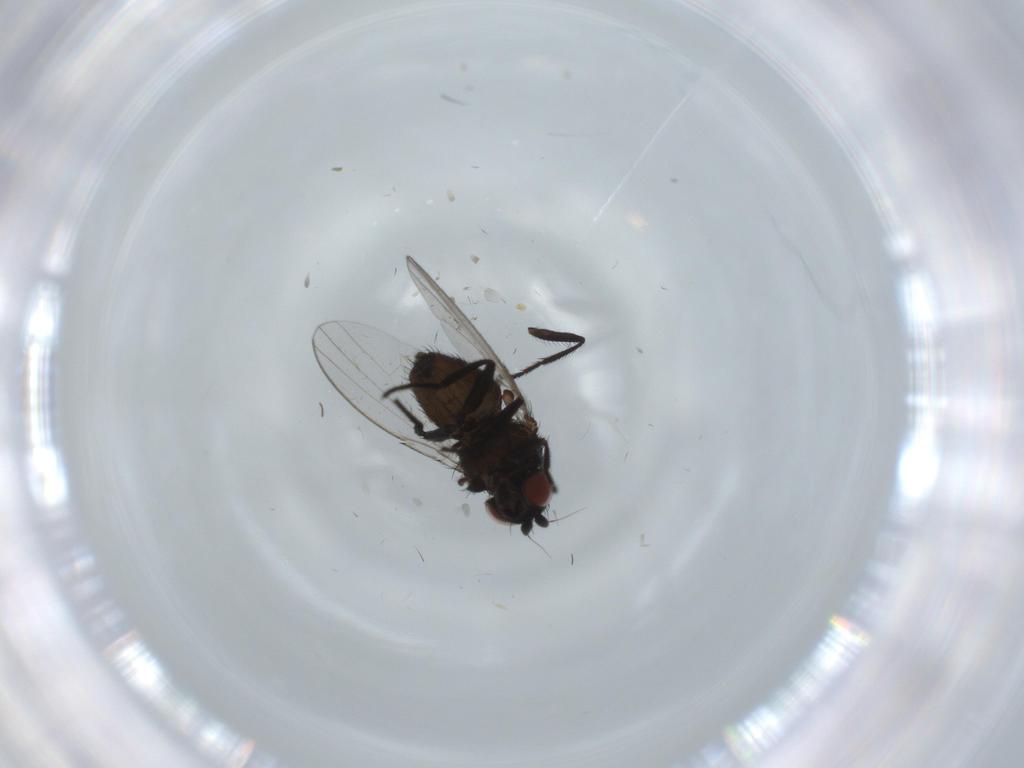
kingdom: Animalia
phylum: Arthropoda
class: Insecta
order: Diptera
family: Milichiidae
